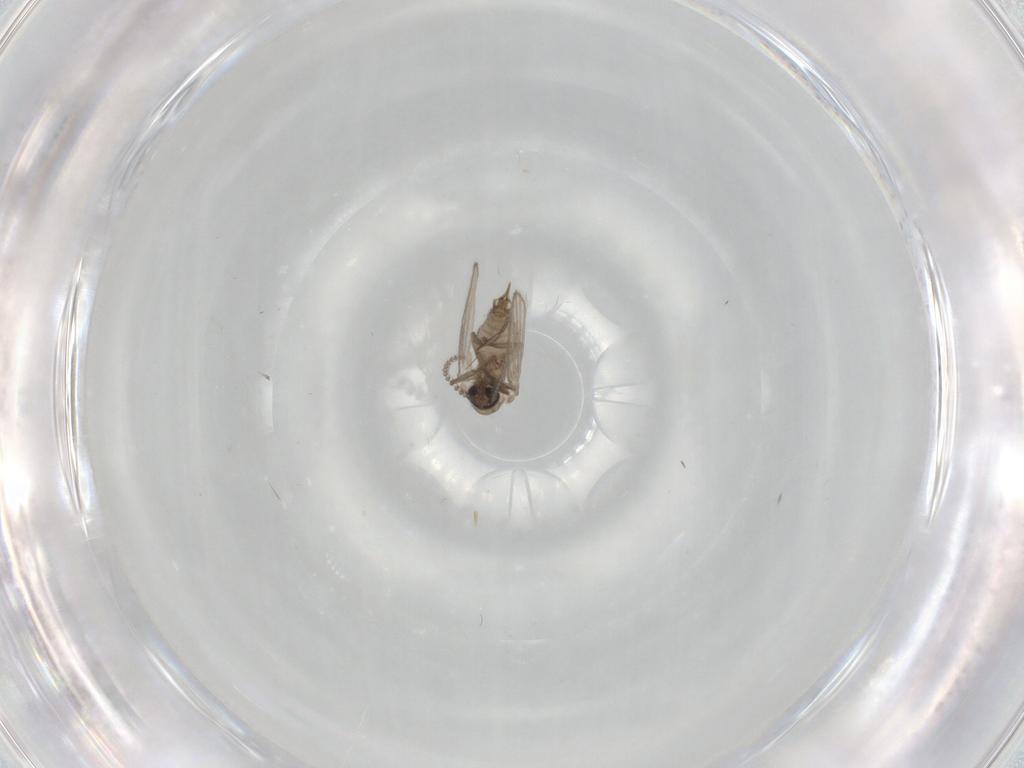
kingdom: Animalia
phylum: Arthropoda
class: Insecta
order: Diptera
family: Psychodidae
